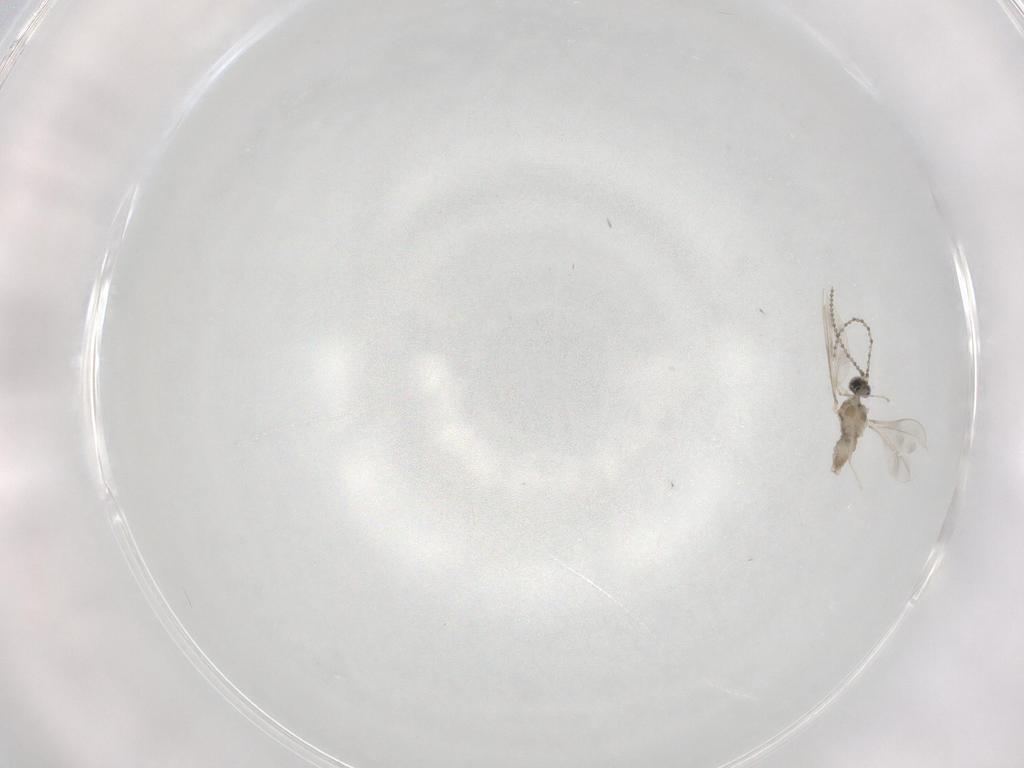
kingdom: Animalia
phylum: Arthropoda
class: Insecta
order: Diptera
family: Cecidomyiidae
